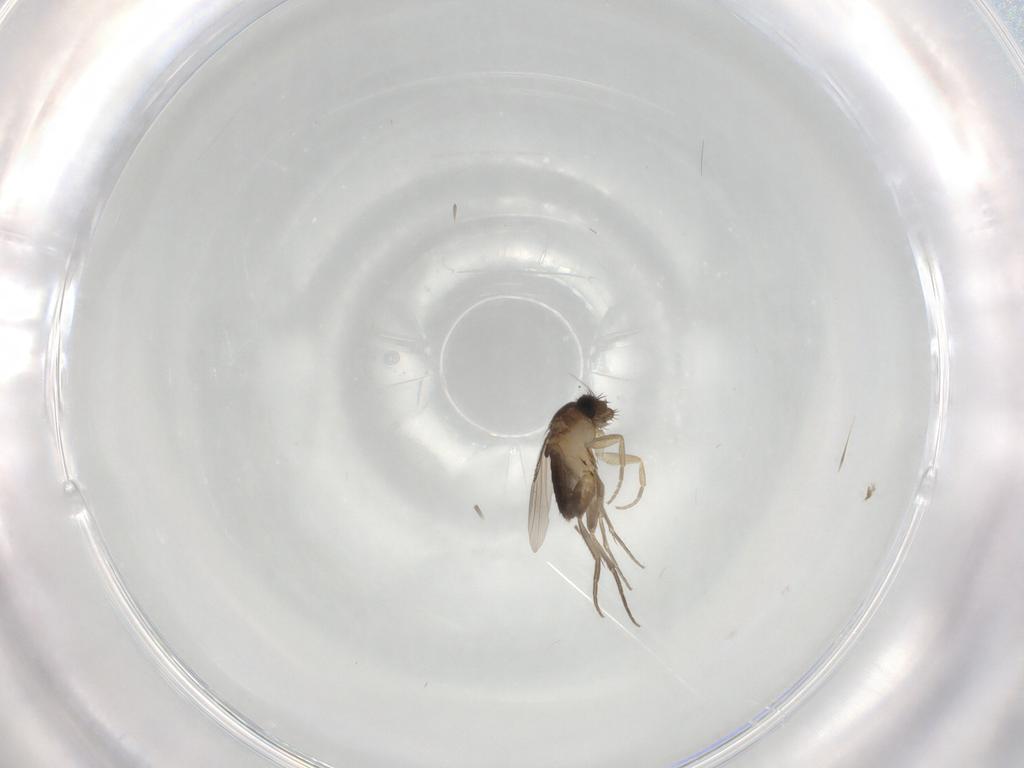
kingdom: Animalia
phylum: Arthropoda
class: Insecta
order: Diptera
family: Phoridae
